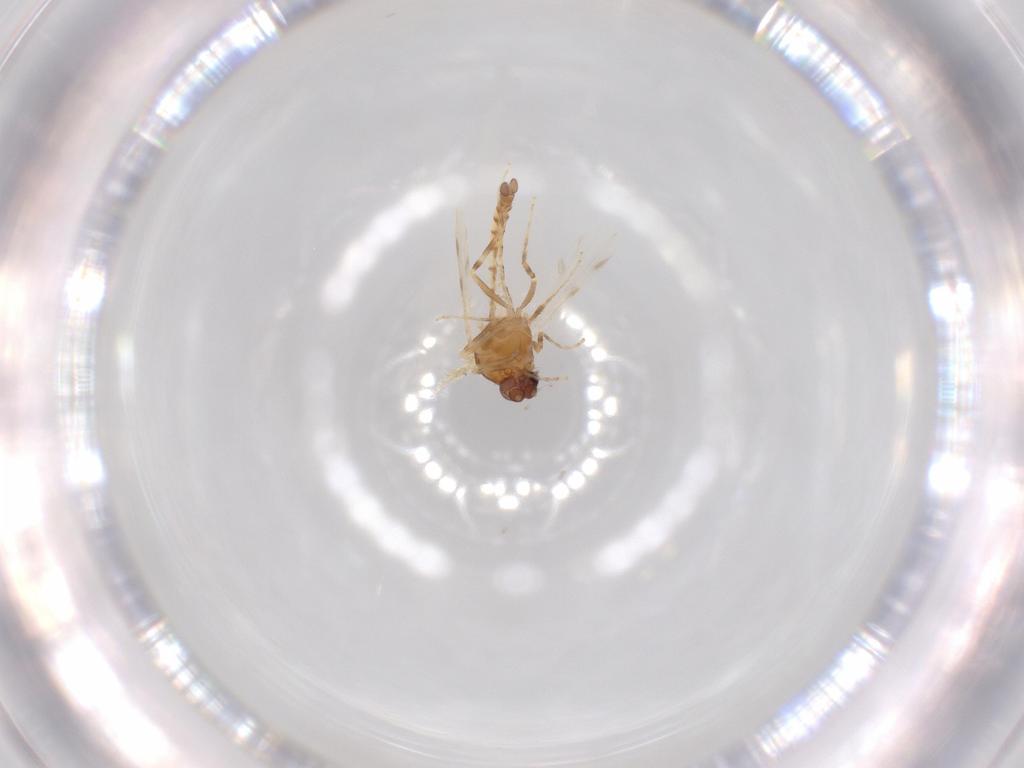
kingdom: Animalia
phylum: Arthropoda
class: Insecta
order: Diptera
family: Ceratopogonidae
